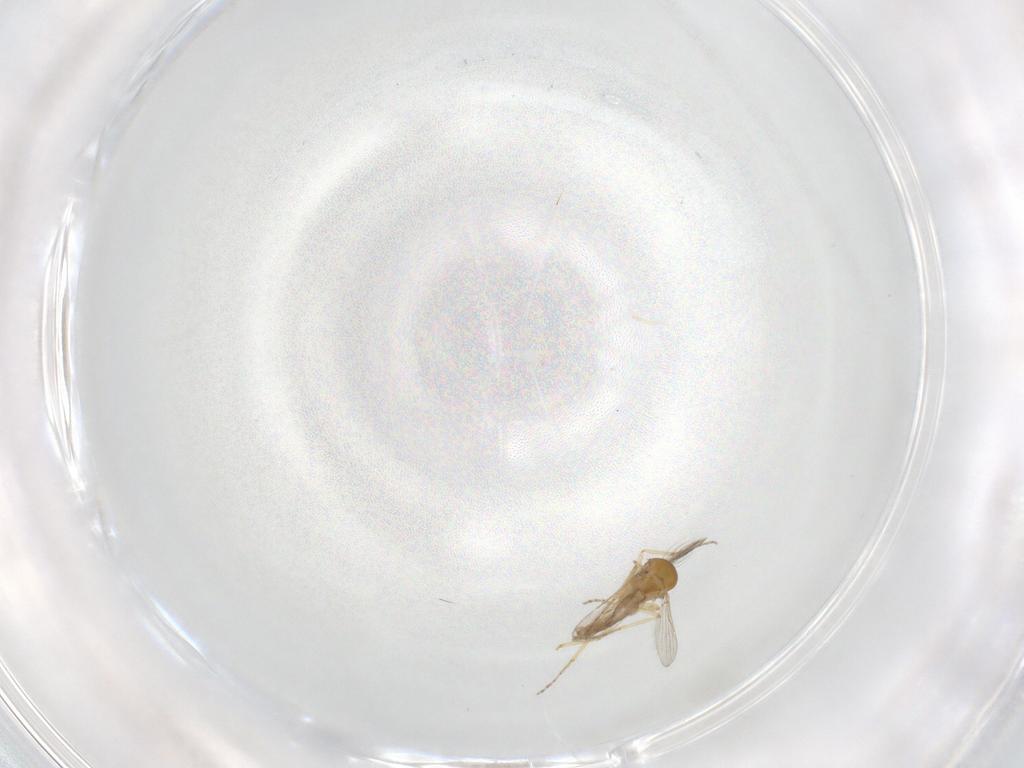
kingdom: Animalia
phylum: Arthropoda
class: Insecta
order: Diptera
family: Ceratopogonidae
